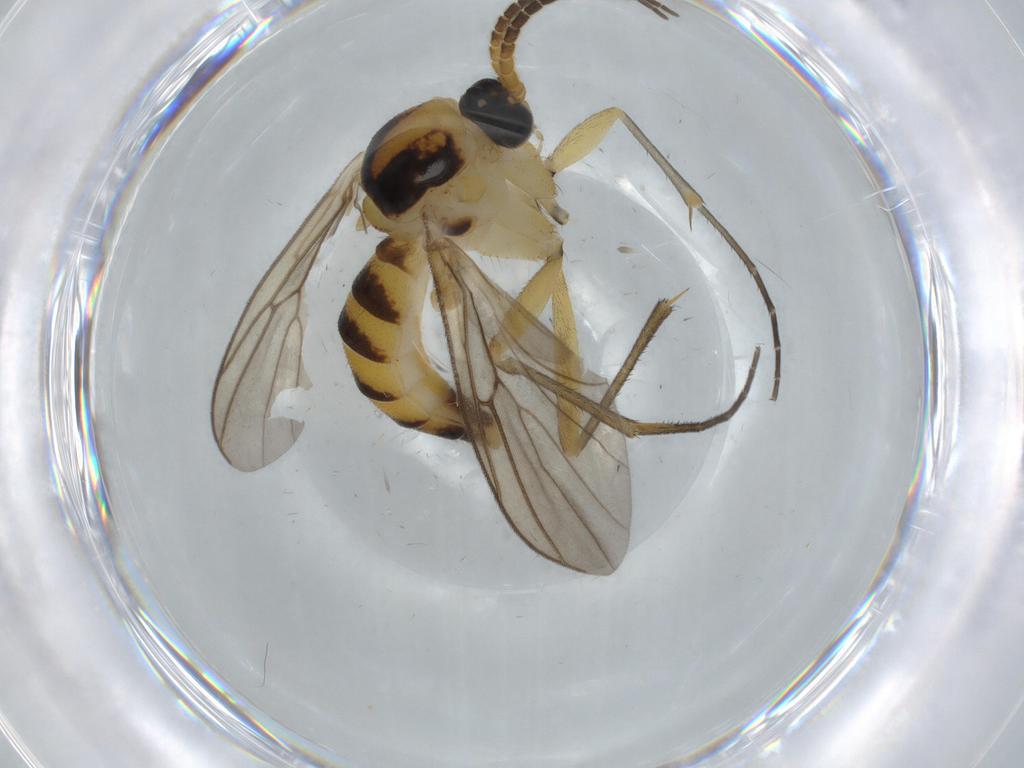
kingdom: Animalia
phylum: Arthropoda
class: Insecta
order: Diptera
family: Cecidomyiidae
